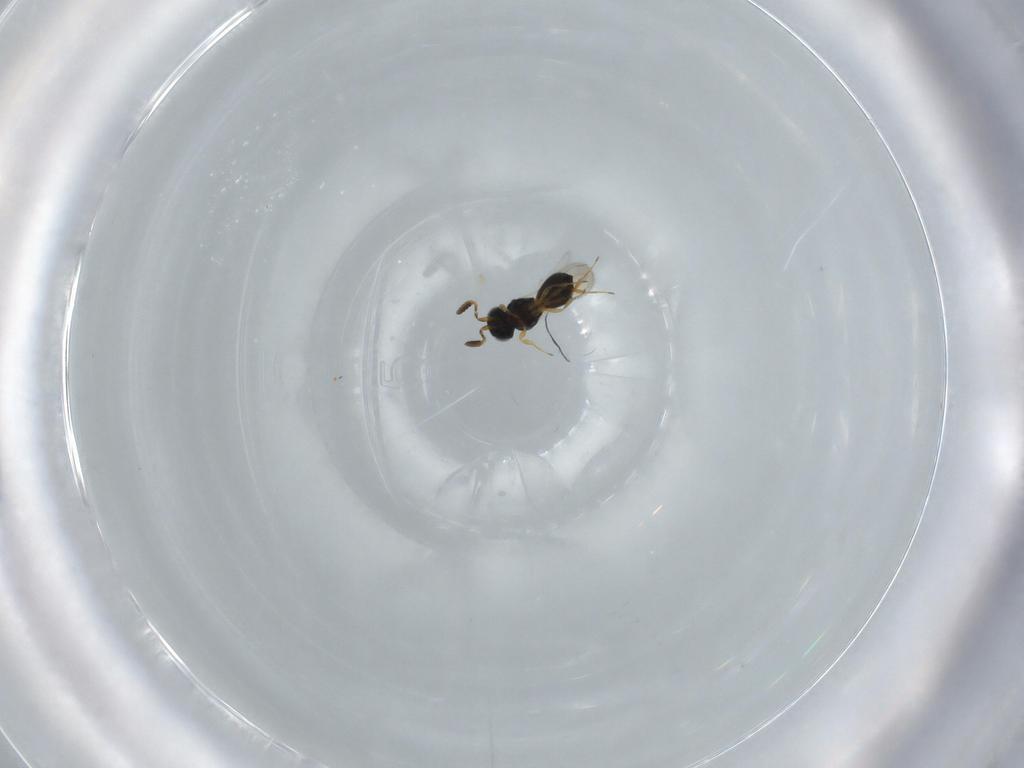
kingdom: Animalia
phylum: Arthropoda
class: Insecta
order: Hymenoptera
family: Scelionidae
